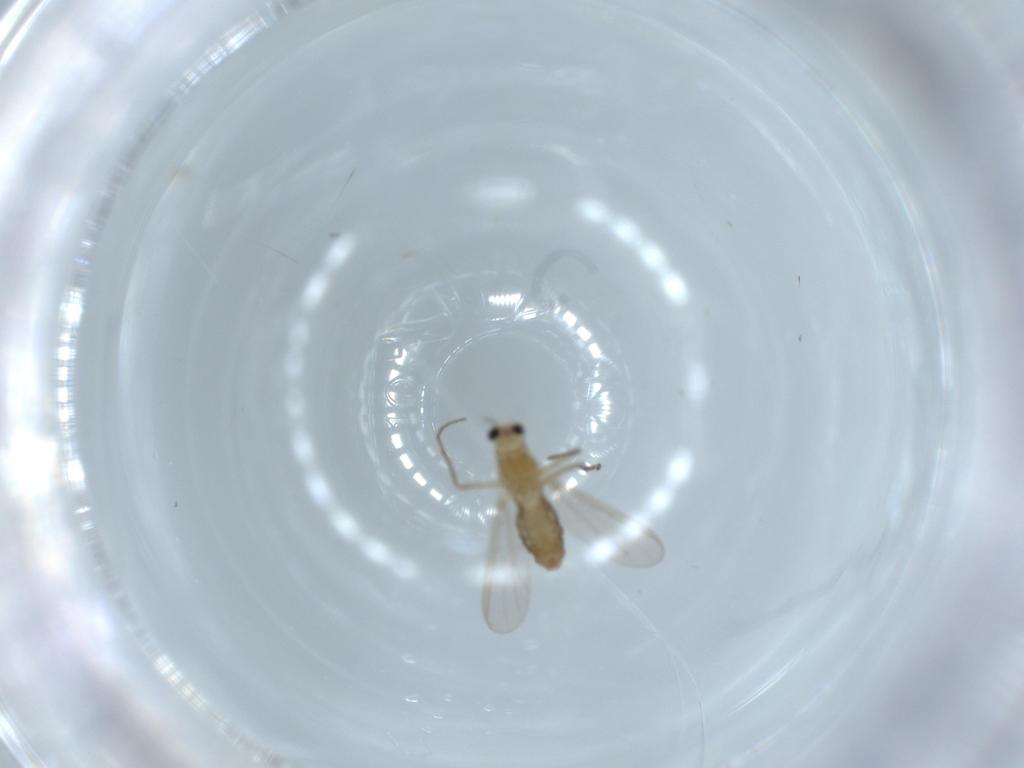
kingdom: Animalia
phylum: Arthropoda
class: Insecta
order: Diptera
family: Chironomidae
